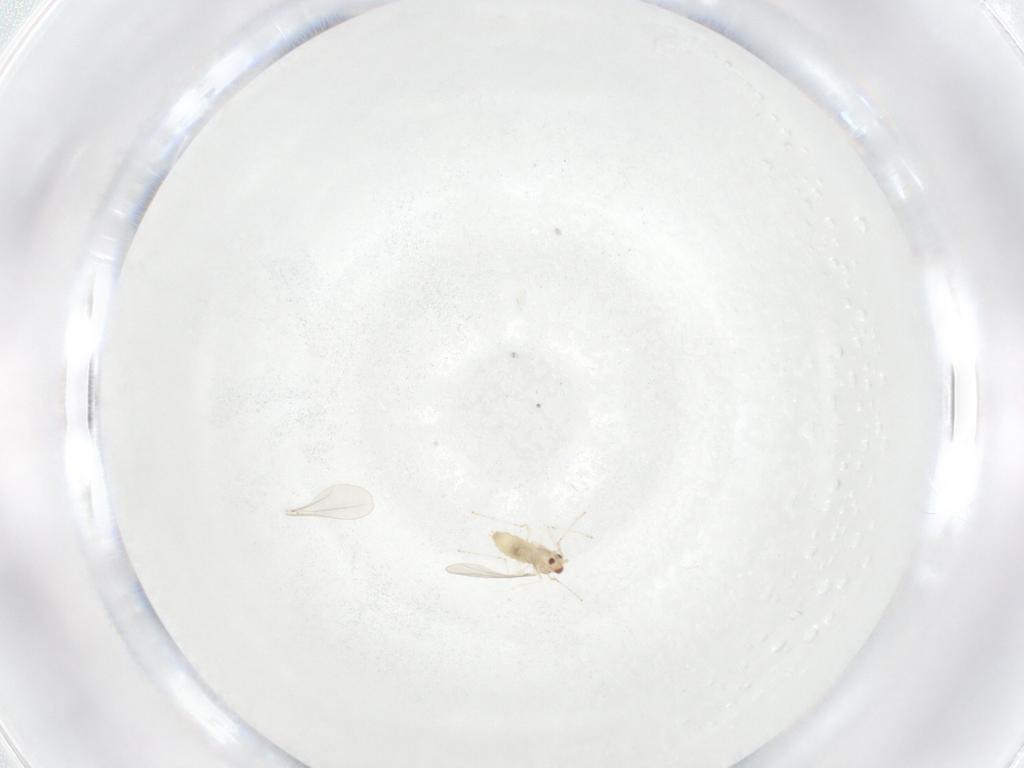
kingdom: Animalia
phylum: Arthropoda
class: Insecta
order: Diptera
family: Cecidomyiidae
